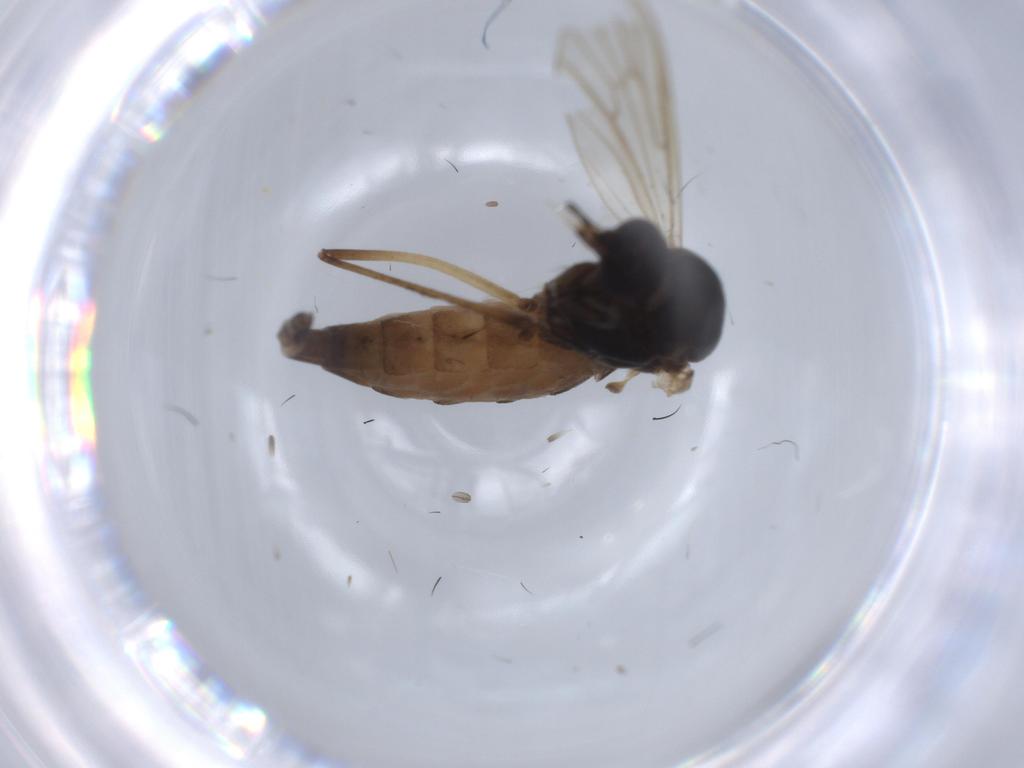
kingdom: Animalia
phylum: Arthropoda
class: Insecta
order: Diptera
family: Culicidae
